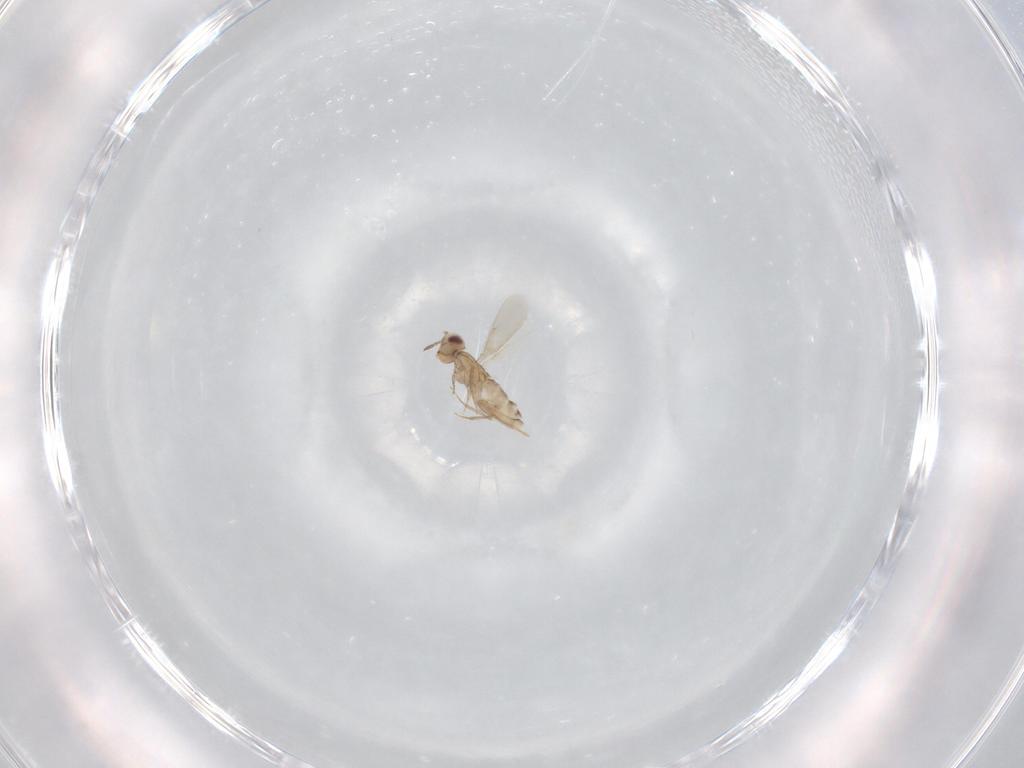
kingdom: Animalia
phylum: Arthropoda
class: Insecta
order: Hymenoptera
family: Aphelinidae
